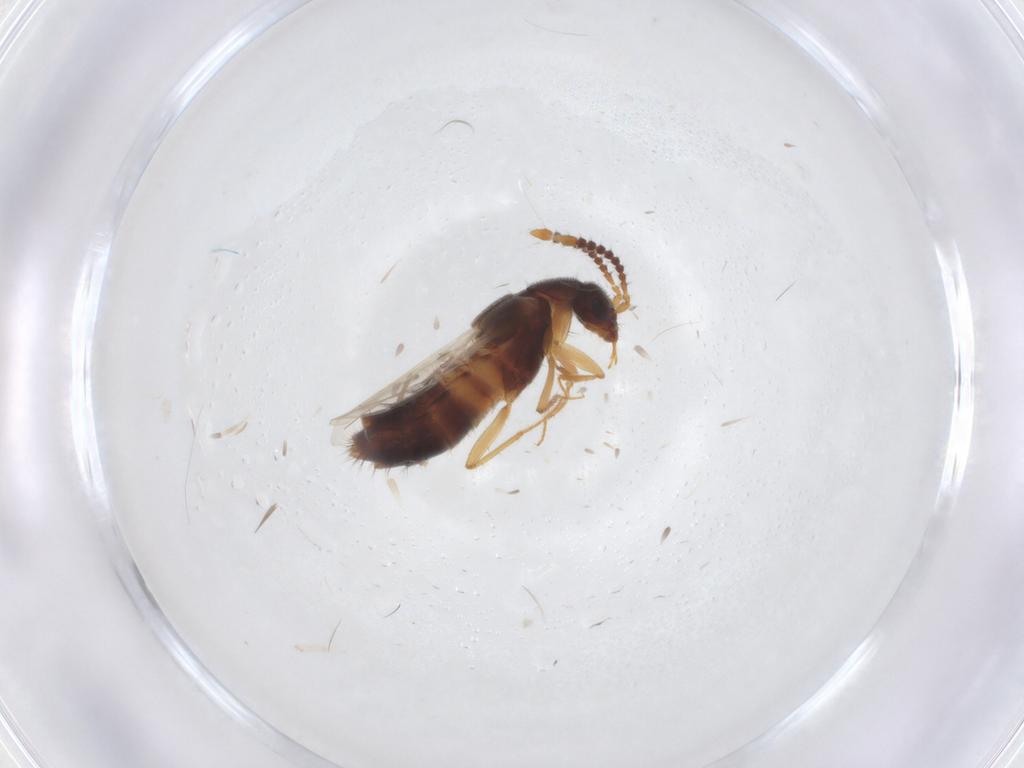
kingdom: Animalia
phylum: Arthropoda
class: Insecta
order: Coleoptera
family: Staphylinidae
